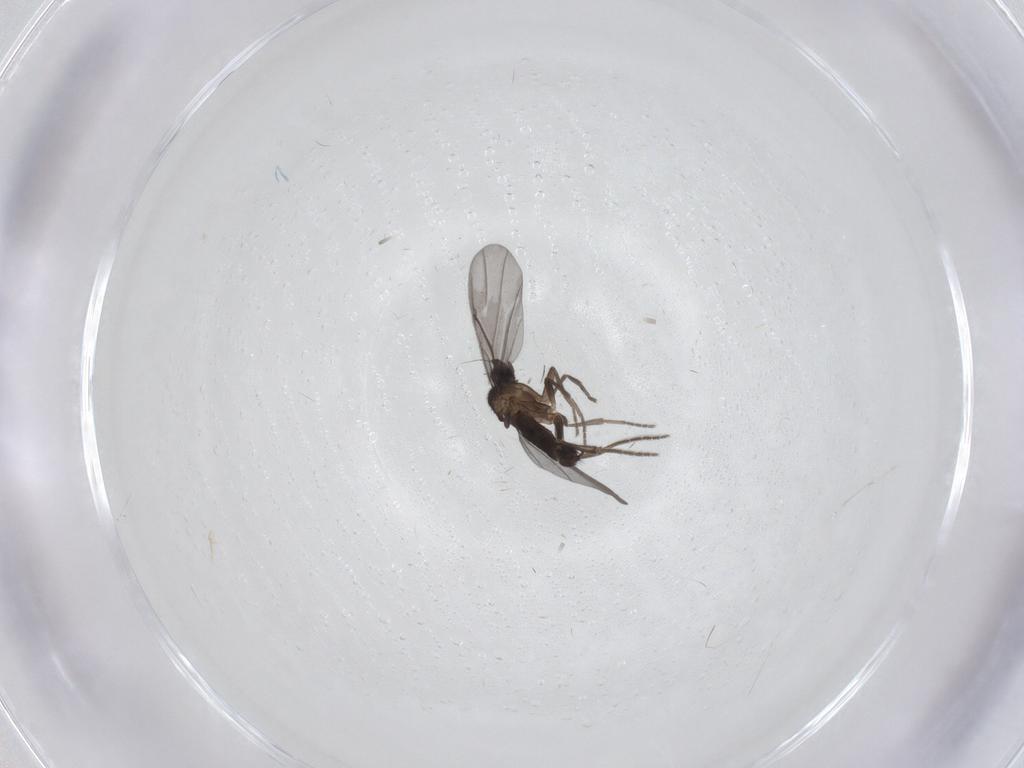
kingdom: Animalia
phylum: Arthropoda
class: Insecta
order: Diptera
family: Phoridae
